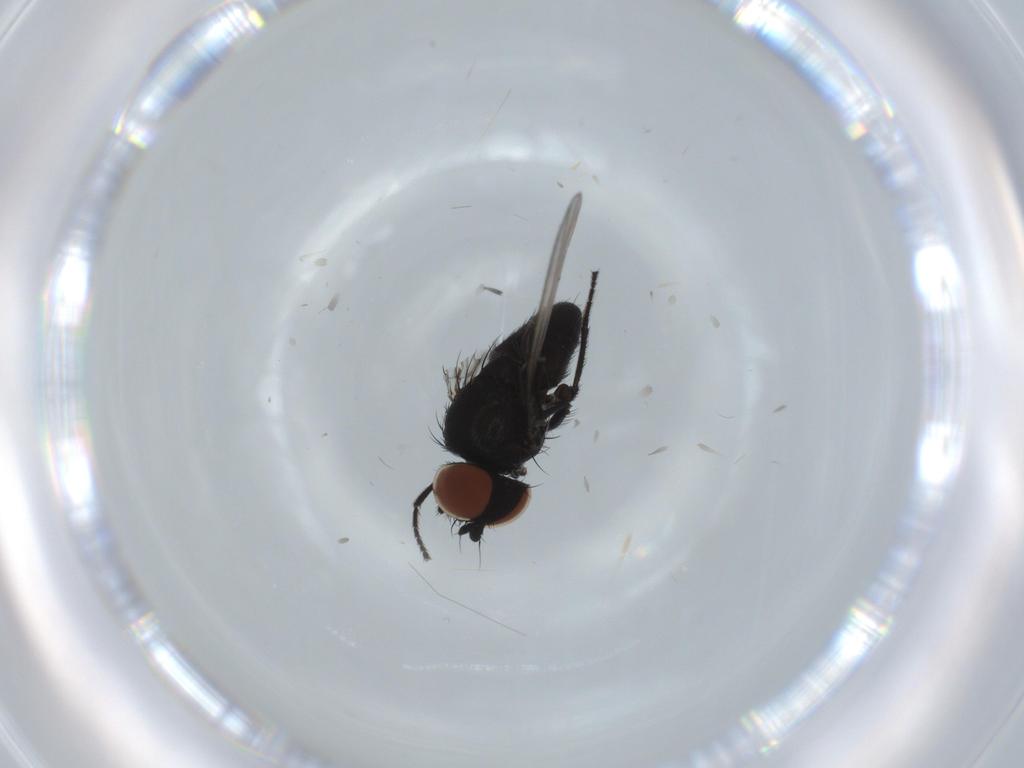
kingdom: Animalia
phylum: Arthropoda
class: Insecta
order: Diptera
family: Milichiidae
